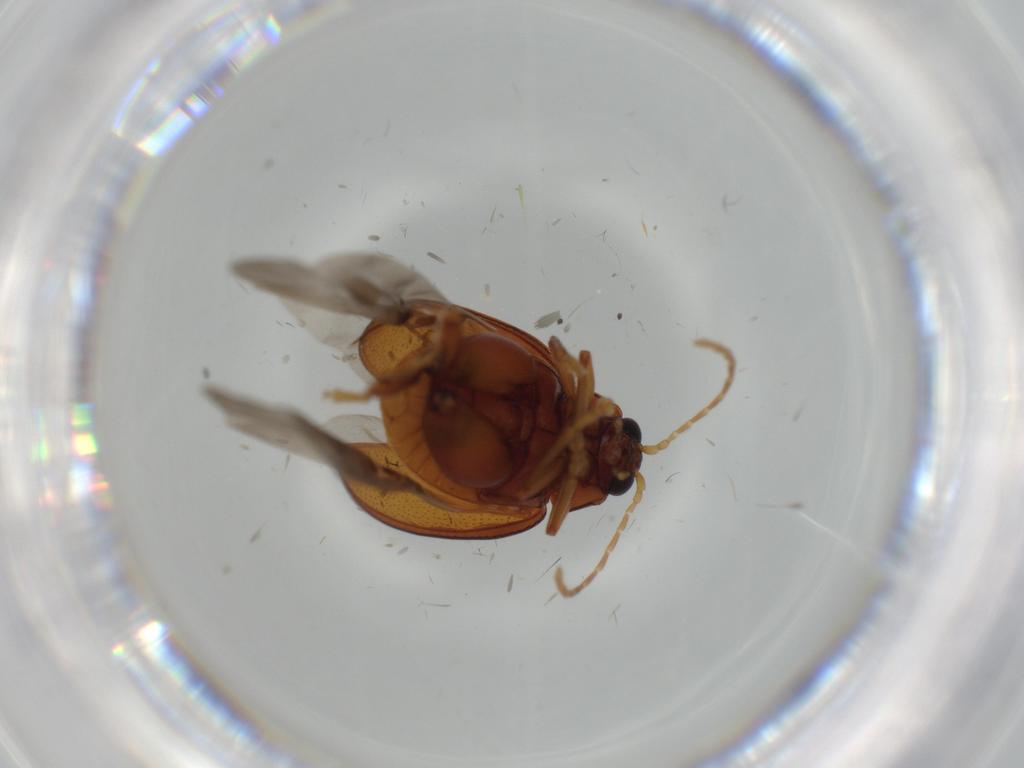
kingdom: Animalia
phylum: Arthropoda
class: Insecta
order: Coleoptera
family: Chrysomelidae
